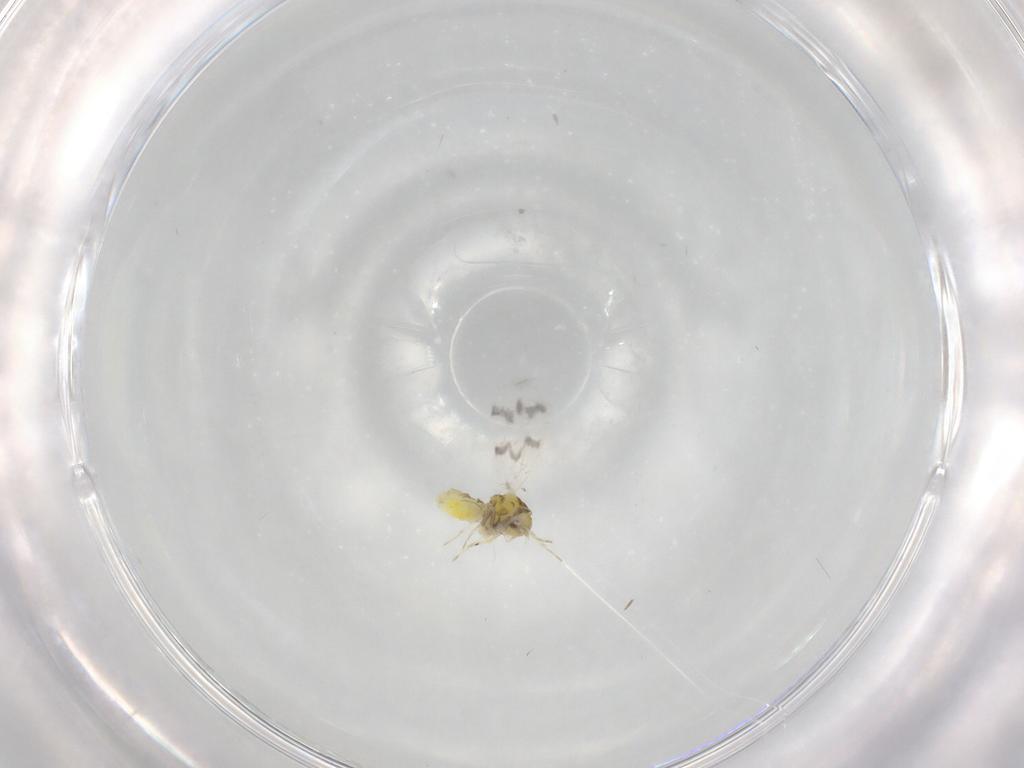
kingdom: Animalia
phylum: Arthropoda
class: Insecta
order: Hemiptera
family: Aleyrodidae
